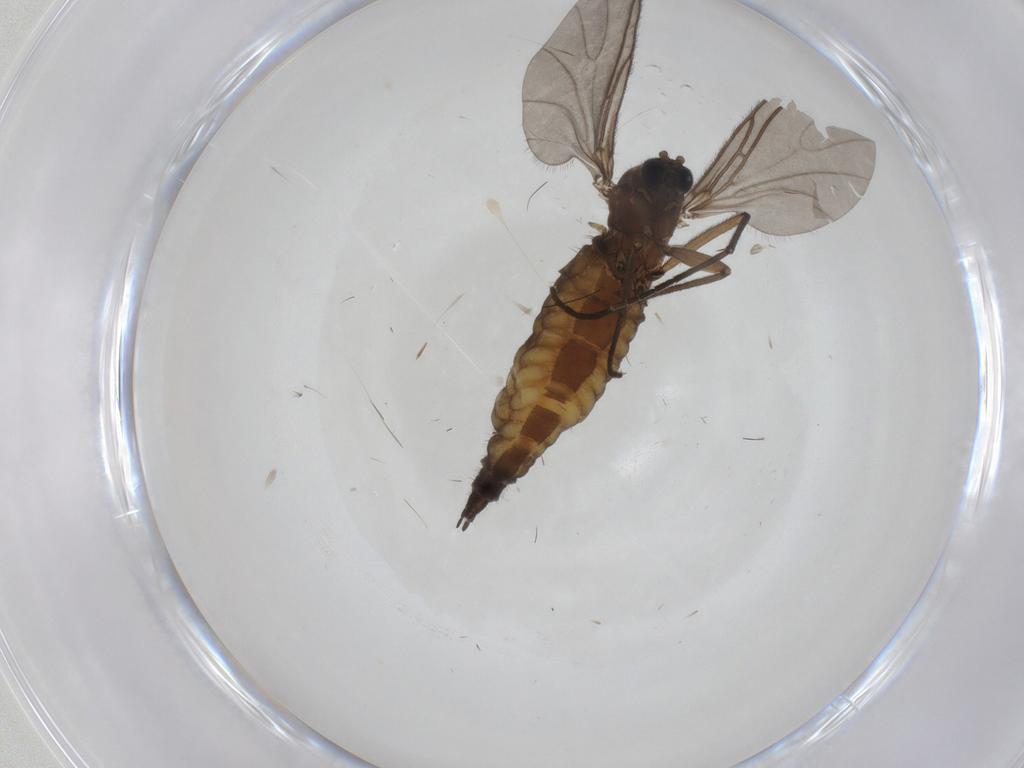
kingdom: Animalia
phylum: Arthropoda
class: Insecta
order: Diptera
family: Sciaridae
